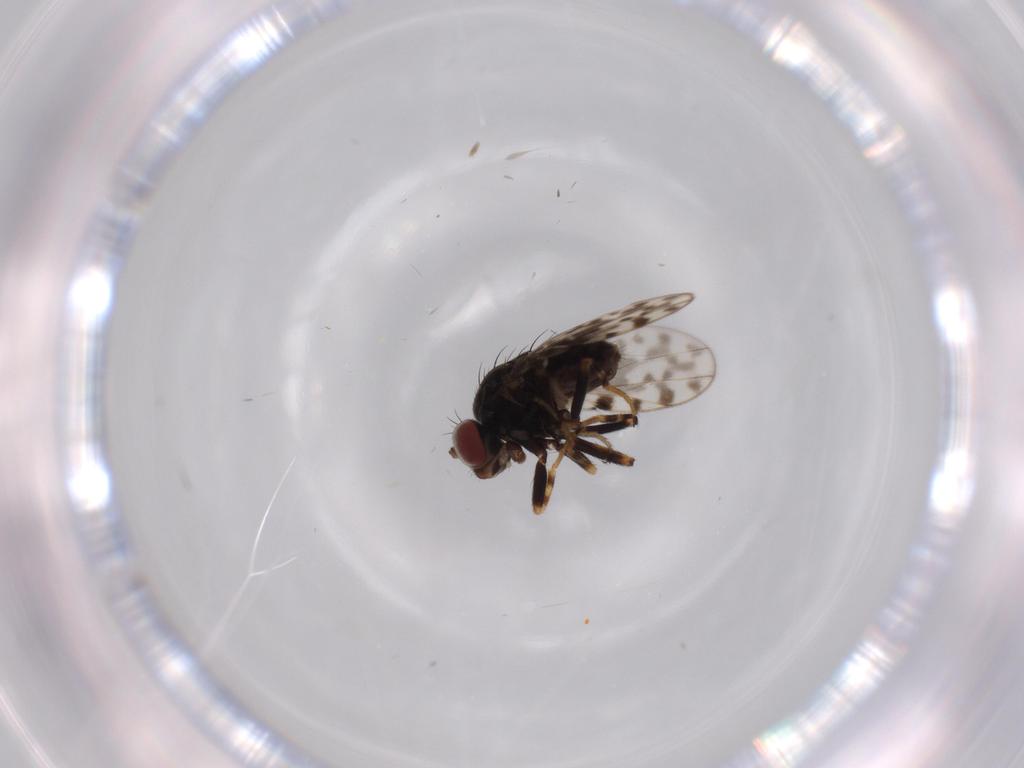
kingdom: Animalia
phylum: Arthropoda
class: Insecta
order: Diptera
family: Ephydridae
